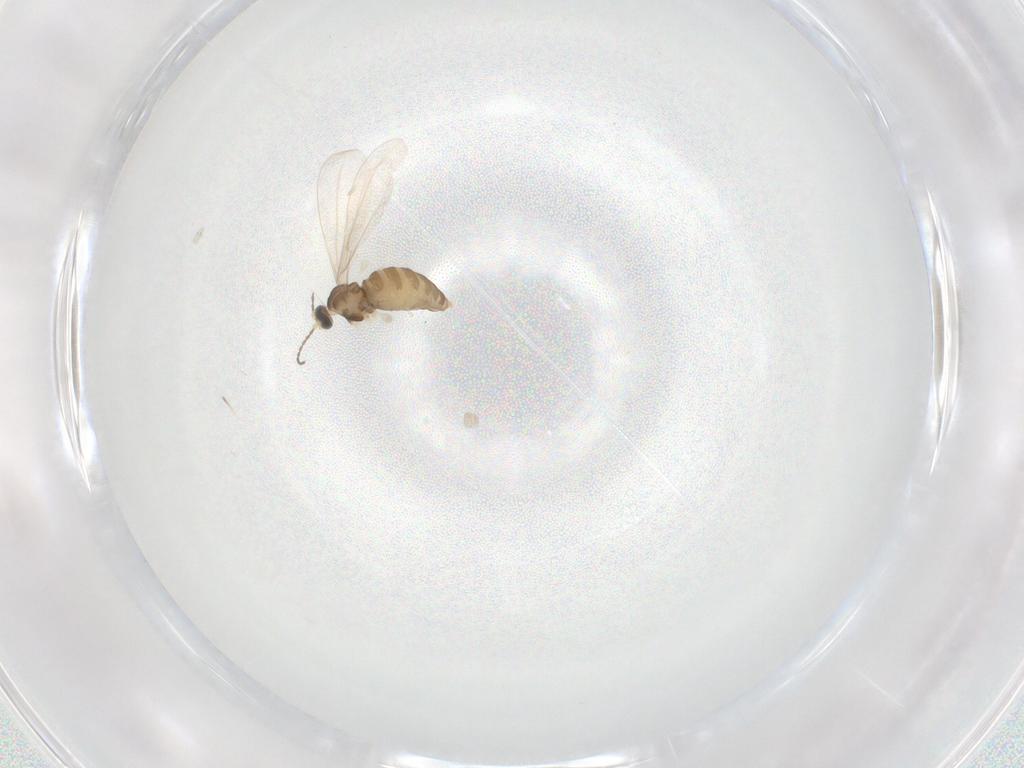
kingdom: Animalia
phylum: Arthropoda
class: Insecta
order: Diptera
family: Cecidomyiidae
